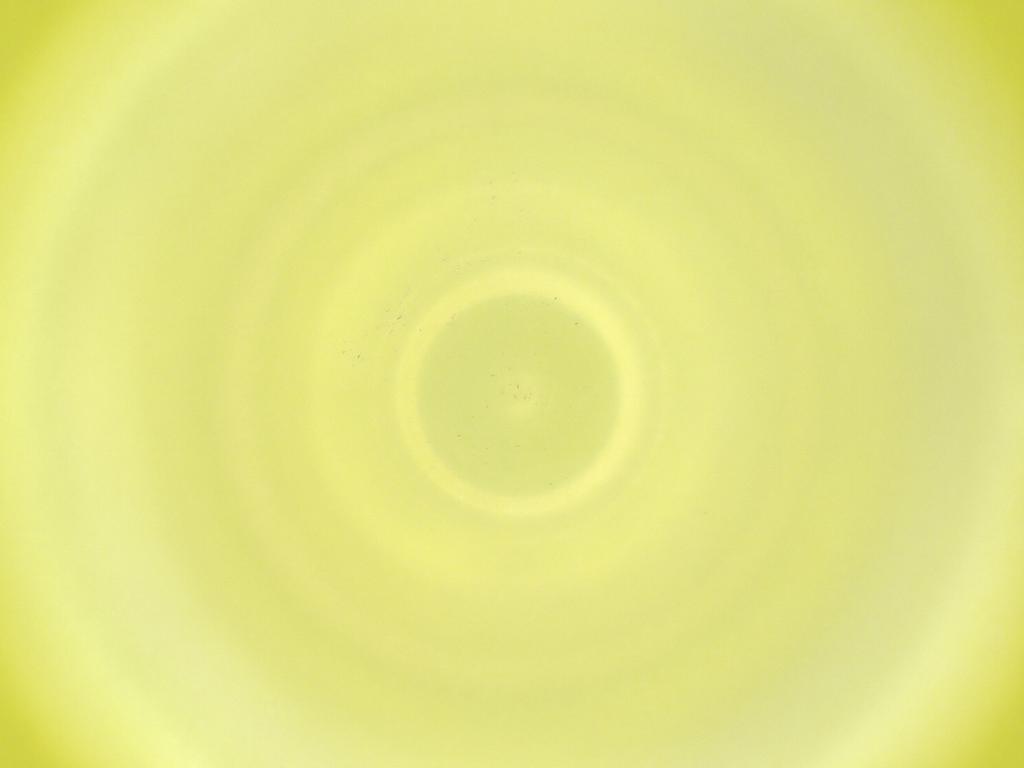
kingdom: Animalia
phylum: Arthropoda
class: Insecta
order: Diptera
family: Cecidomyiidae
